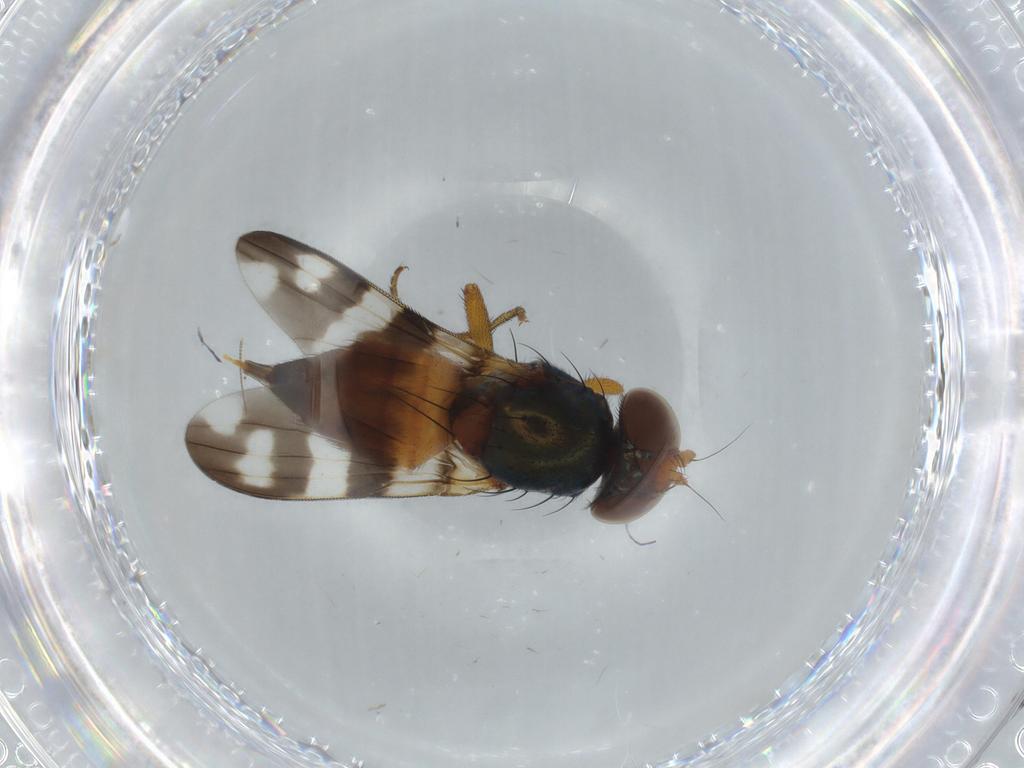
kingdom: Animalia
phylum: Arthropoda
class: Insecta
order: Diptera
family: Ulidiidae
